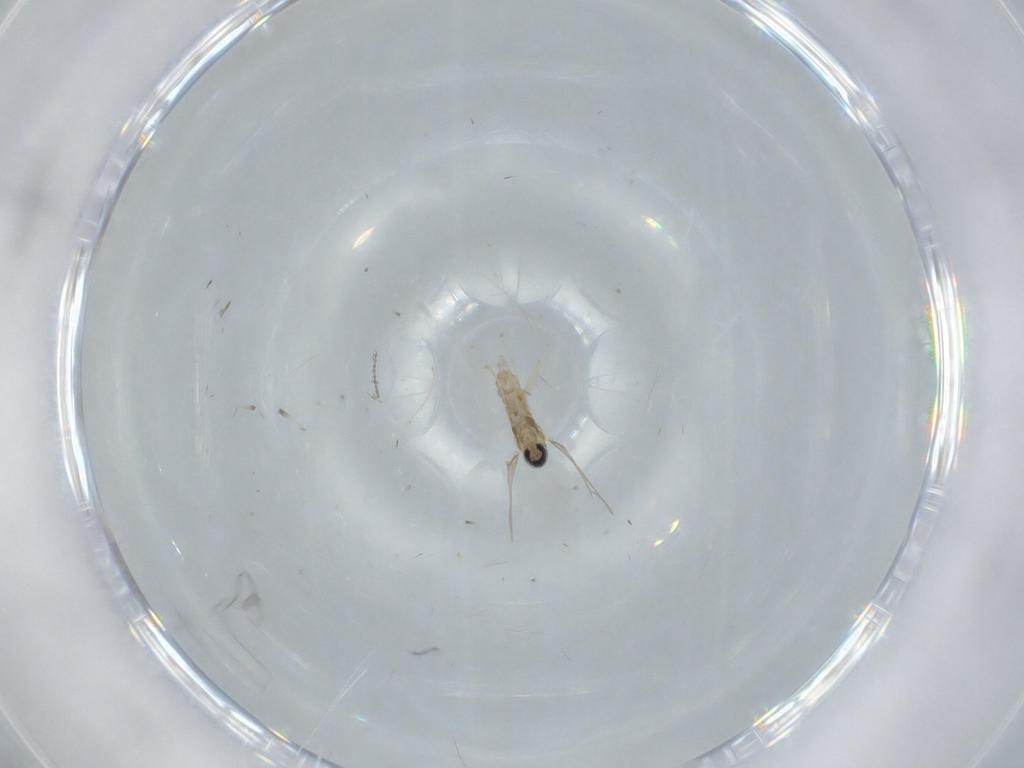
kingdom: Animalia
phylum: Arthropoda
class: Insecta
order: Diptera
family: Cecidomyiidae
